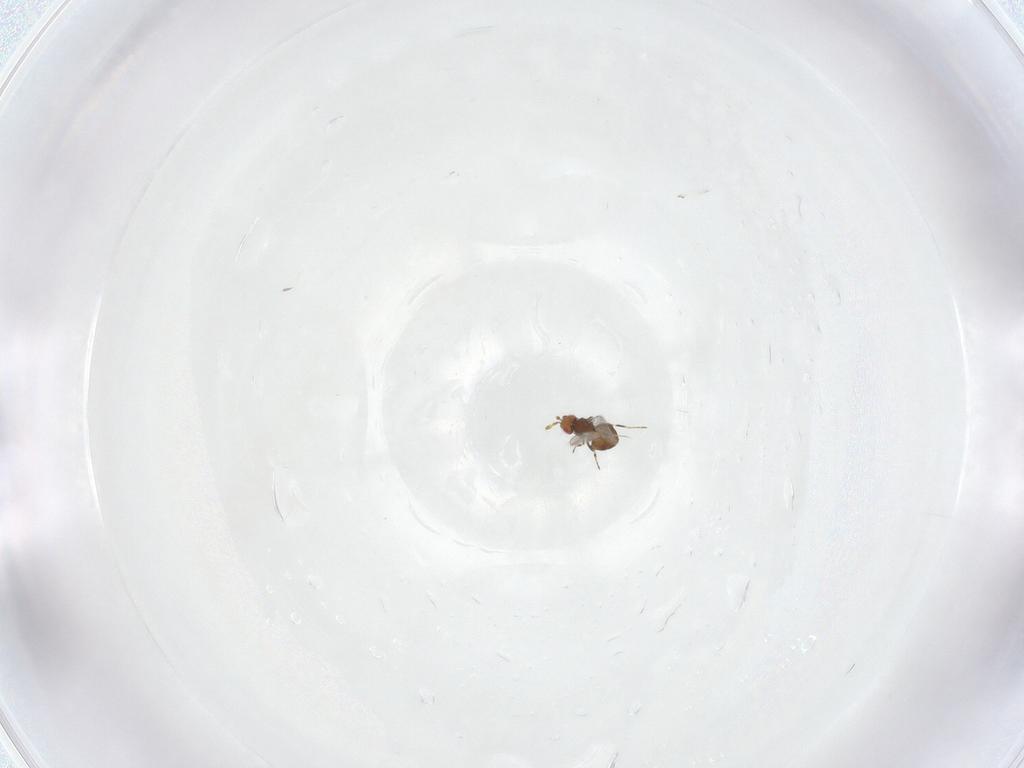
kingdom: Animalia
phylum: Arthropoda
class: Insecta
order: Hymenoptera
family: Trichogrammatidae
